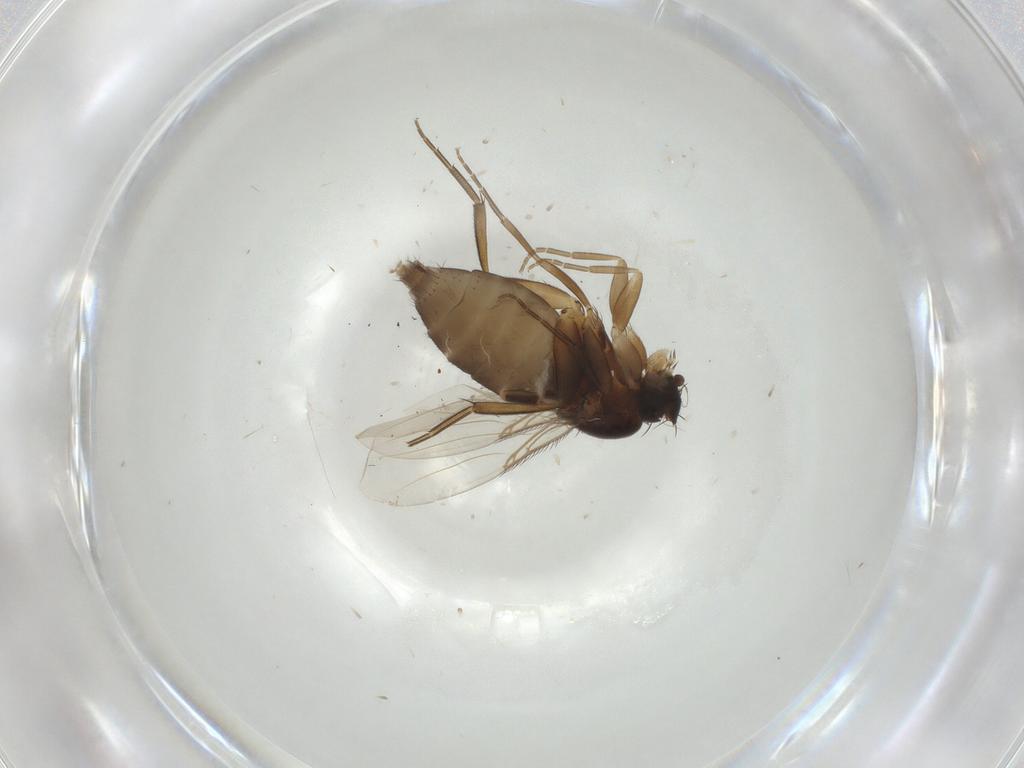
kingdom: Animalia
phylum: Arthropoda
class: Insecta
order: Diptera
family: Phoridae
